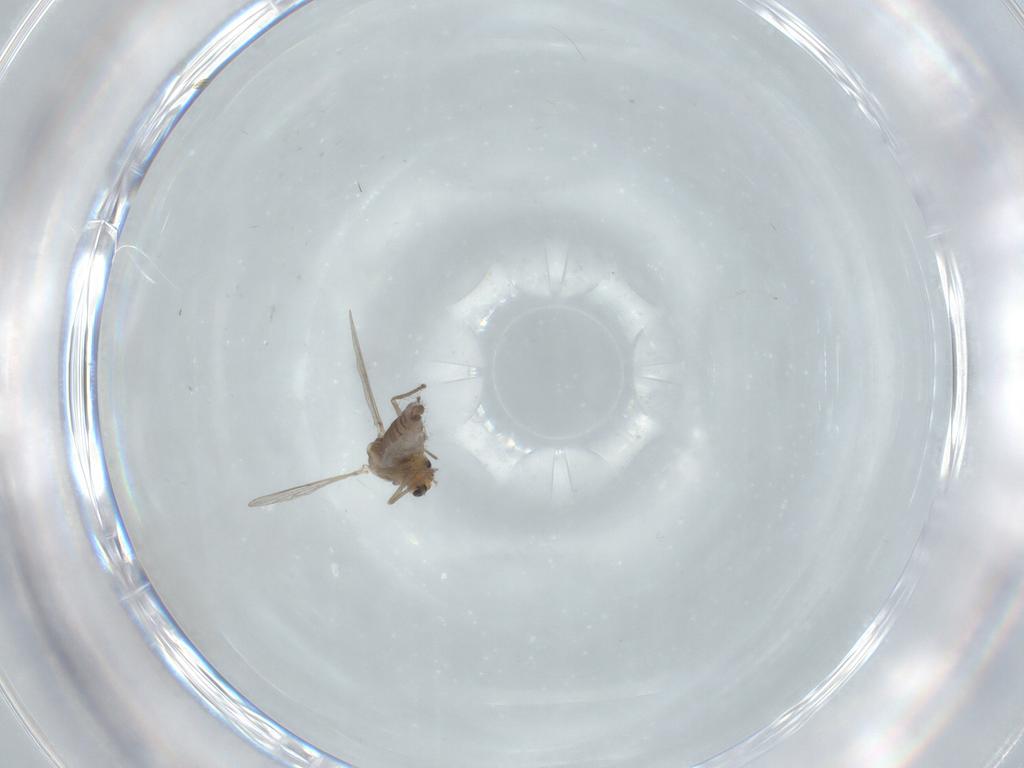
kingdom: Animalia
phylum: Arthropoda
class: Insecta
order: Diptera
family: Chironomidae
